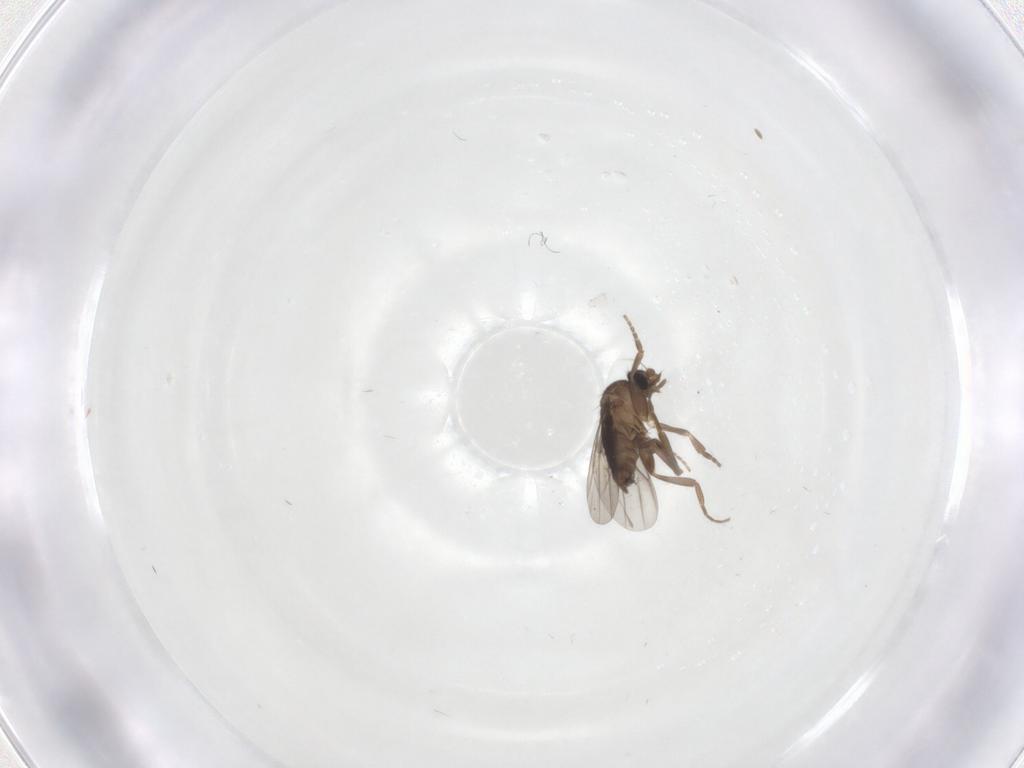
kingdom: Animalia
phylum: Arthropoda
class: Insecta
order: Diptera
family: Phoridae
